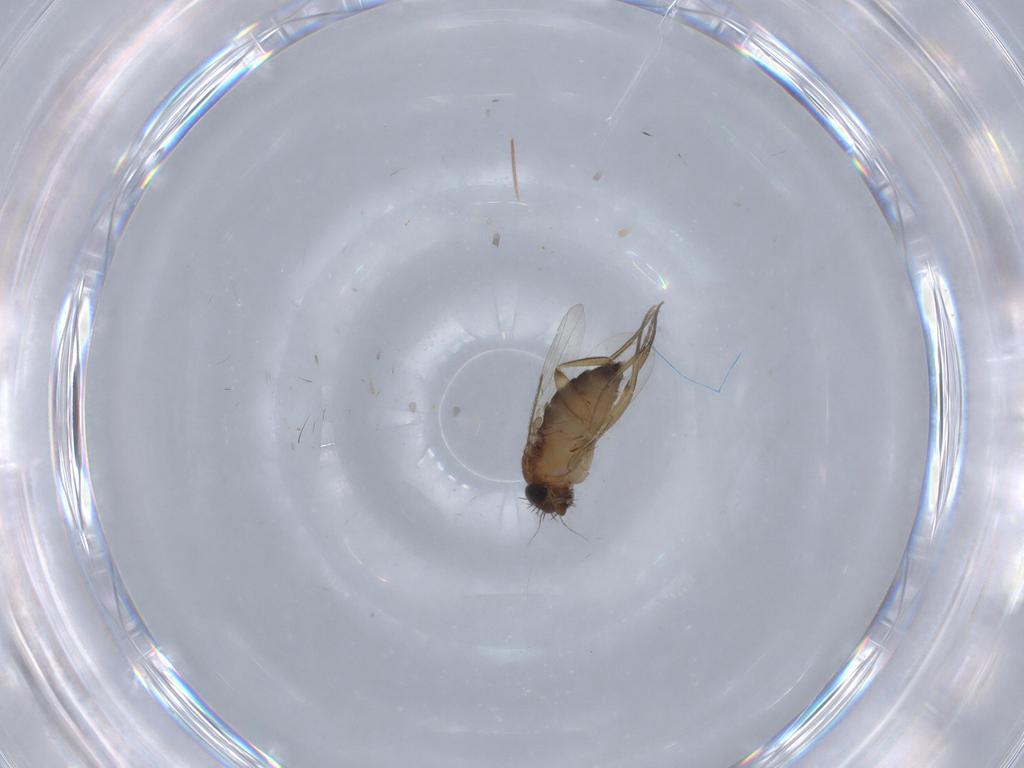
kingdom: Animalia
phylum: Arthropoda
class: Insecta
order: Diptera
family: Phoridae
